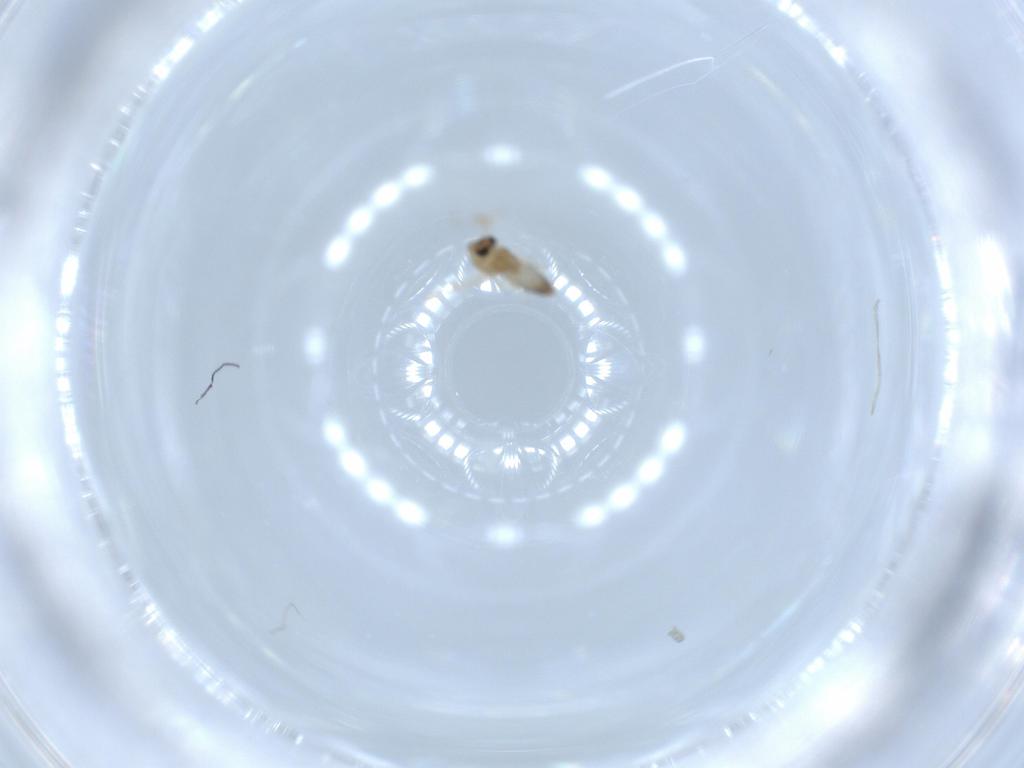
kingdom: Animalia
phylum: Arthropoda
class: Insecta
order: Diptera
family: Chironomidae
